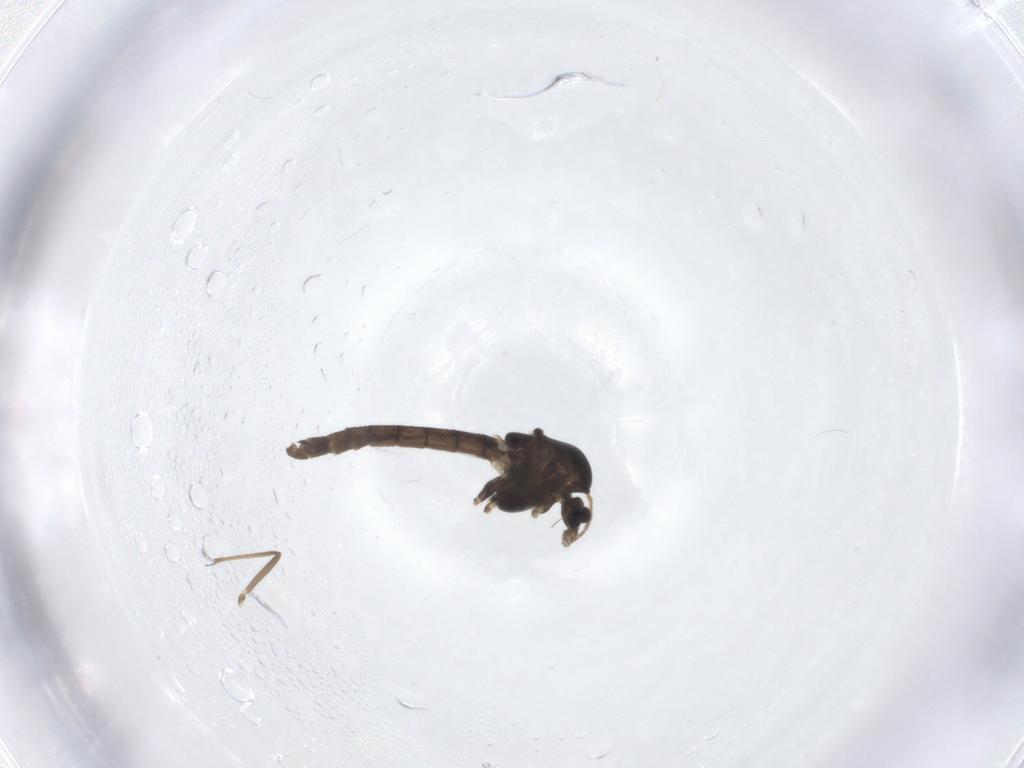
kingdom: Animalia
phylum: Arthropoda
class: Insecta
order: Diptera
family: Chironomidae
